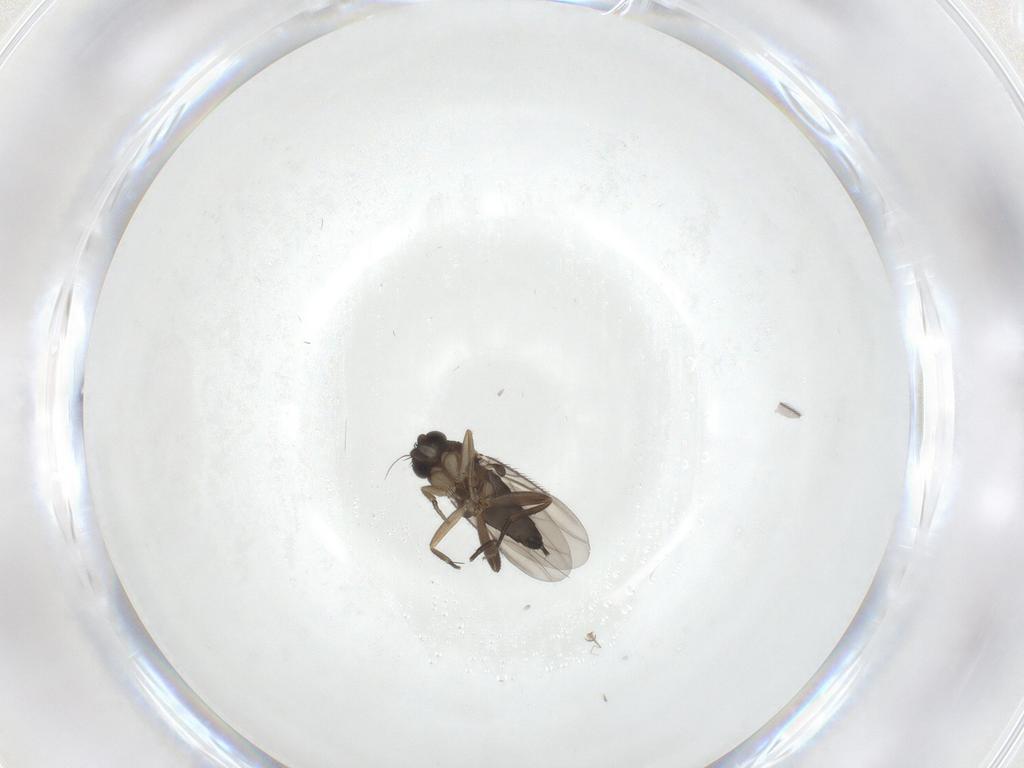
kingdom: Animalia
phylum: Arthropoda
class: Insecta
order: Diptera
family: Phoridae
